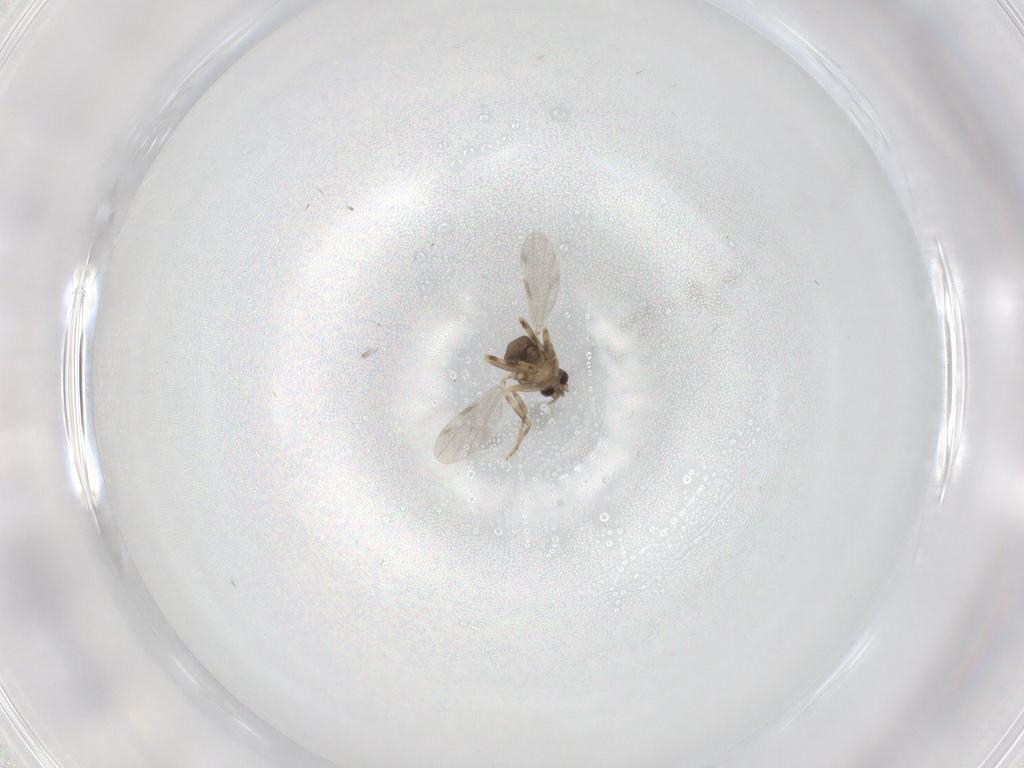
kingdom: Animalia
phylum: Arthropoda
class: Insecta
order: Diptera
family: Ceratopogonidae
